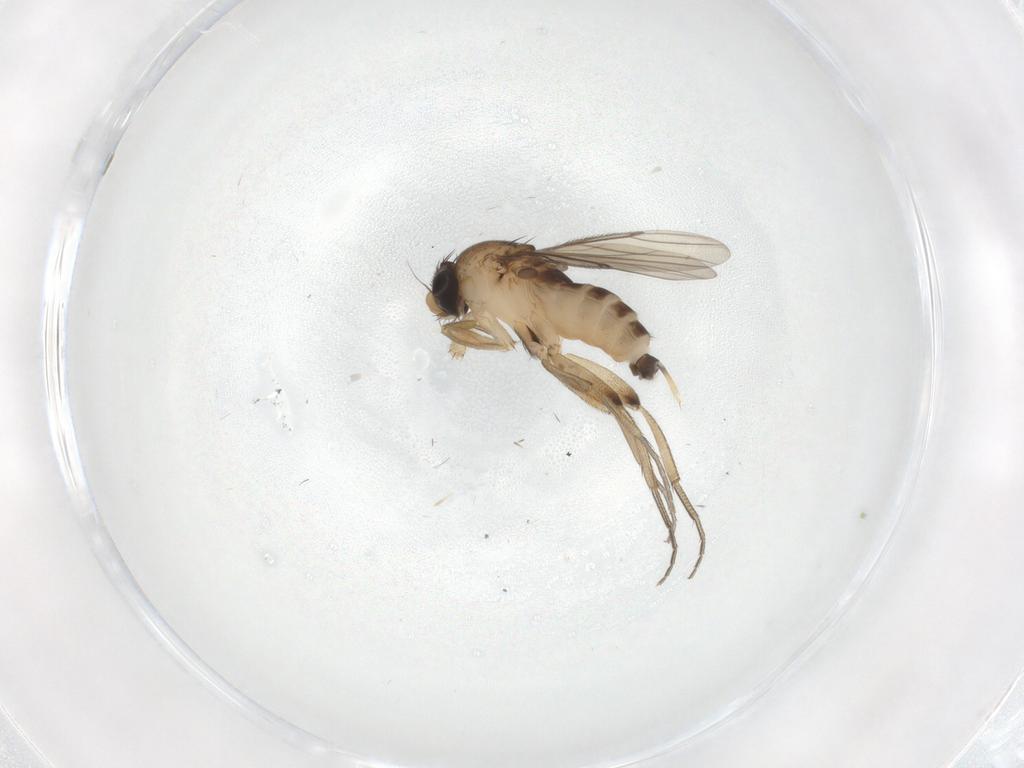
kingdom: Animalia
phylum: Arthropoda
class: Insecta
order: Diptera
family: Phoridae
